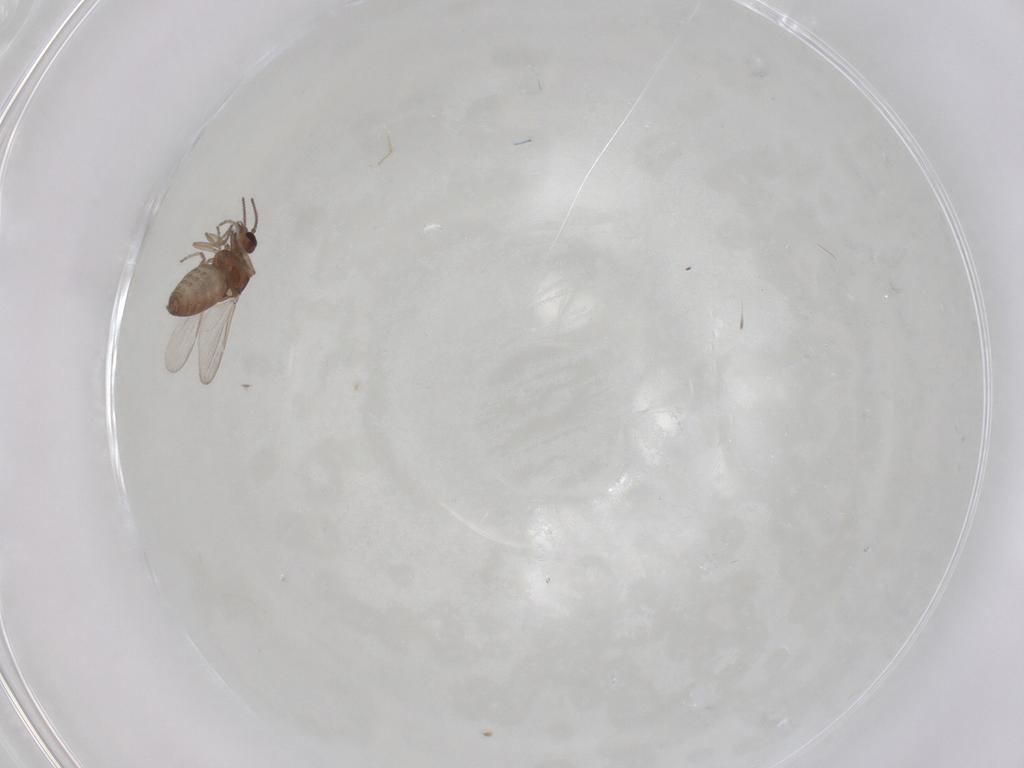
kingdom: Animalia
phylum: Arthropoda
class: Insecta
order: Diptera
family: Ceratopogonidae
